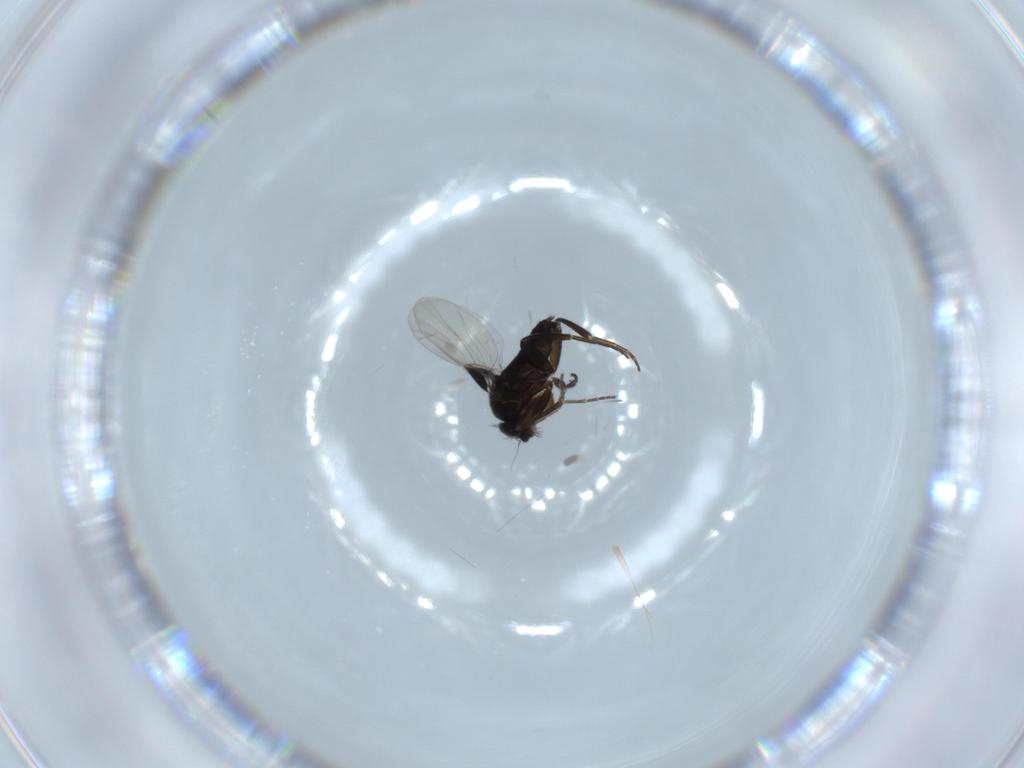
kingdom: Animalia
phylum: Arthropoda
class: Insecta
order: Diptera
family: Phoridae
